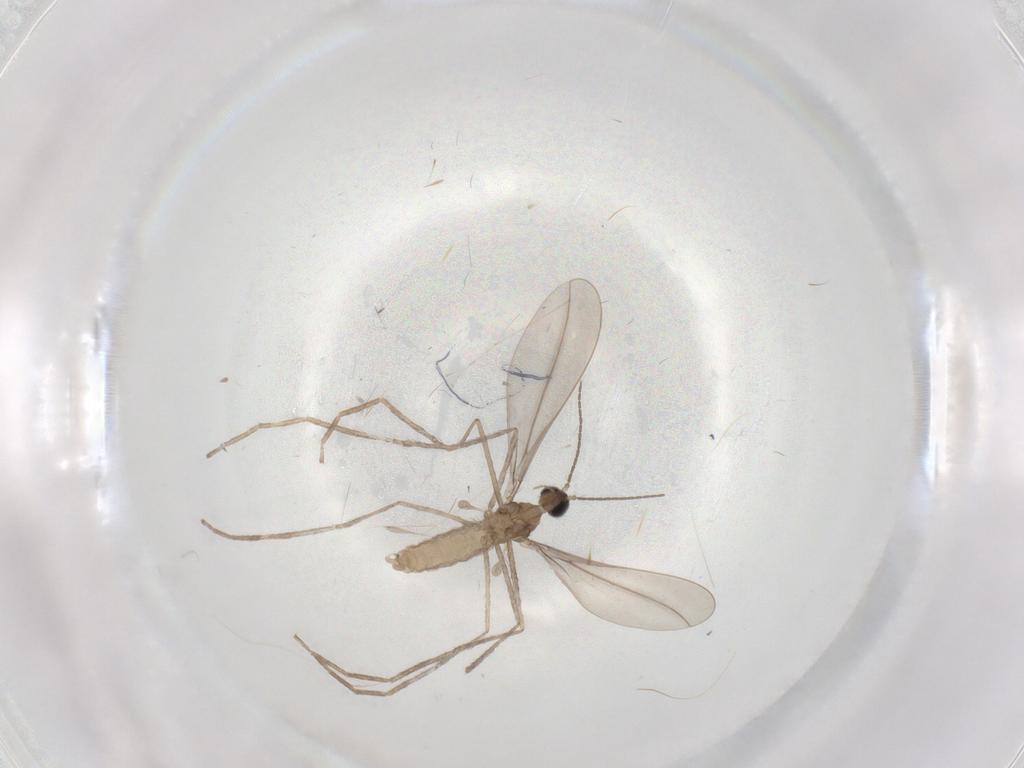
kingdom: Animalia
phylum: Arthropoda
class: Insecta
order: Diptera
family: Cecidomyiidae
